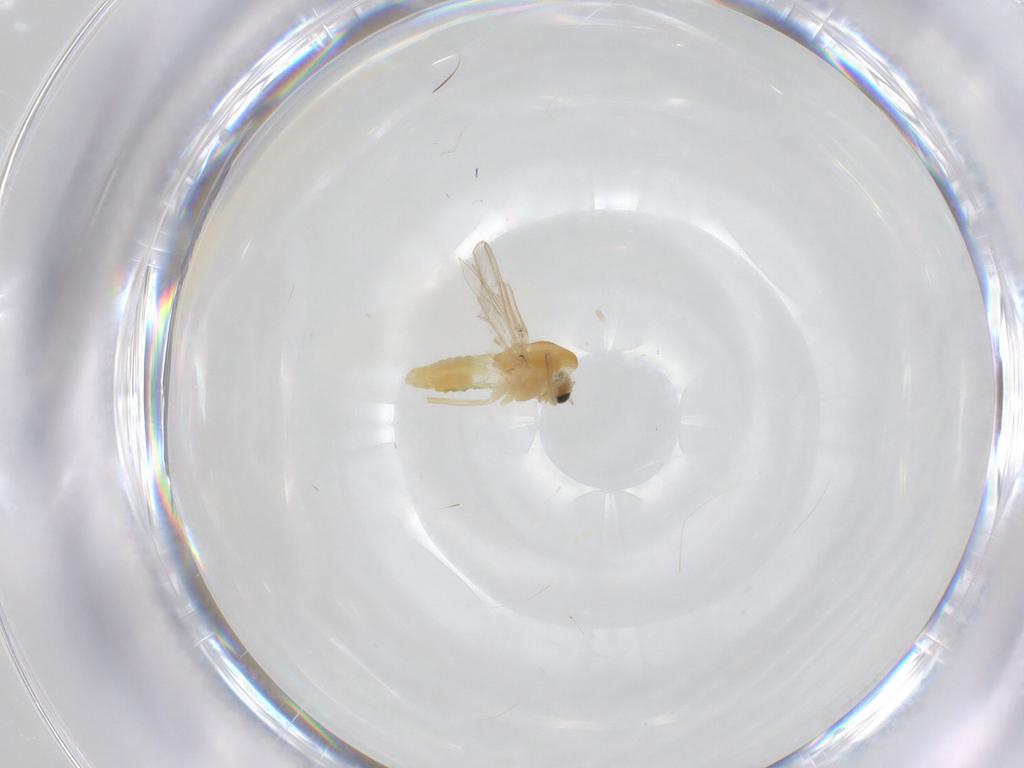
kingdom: Animalia
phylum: Arthropoda
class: Insecta
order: Diptera
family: Chironomidae
